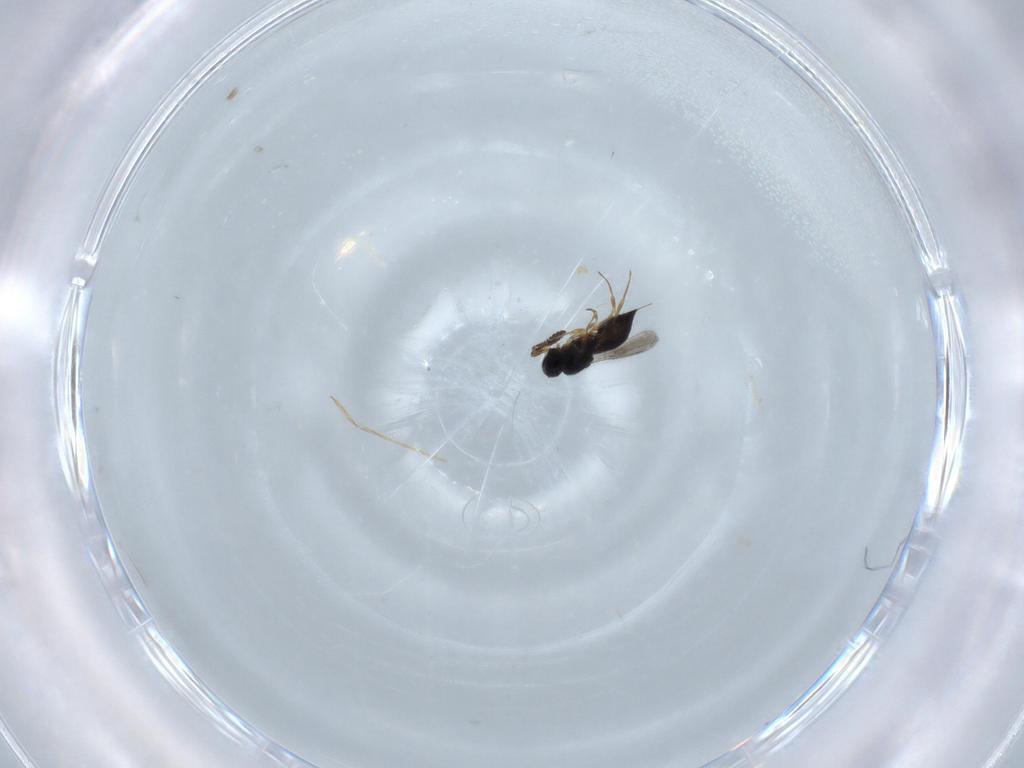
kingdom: Animalia
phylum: Arthropoda
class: Insecta
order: Hymenoptera
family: Scelionidae
